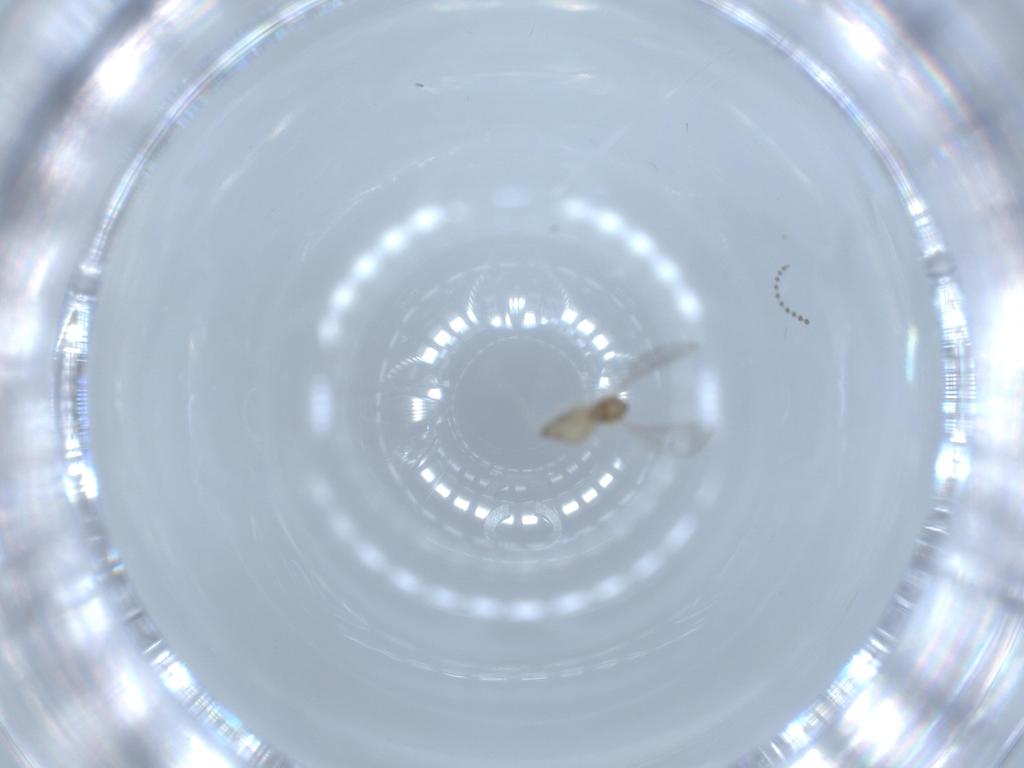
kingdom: Animalia
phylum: Arthropoda
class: Insecta
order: Diptera
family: Cecidomyiidae
